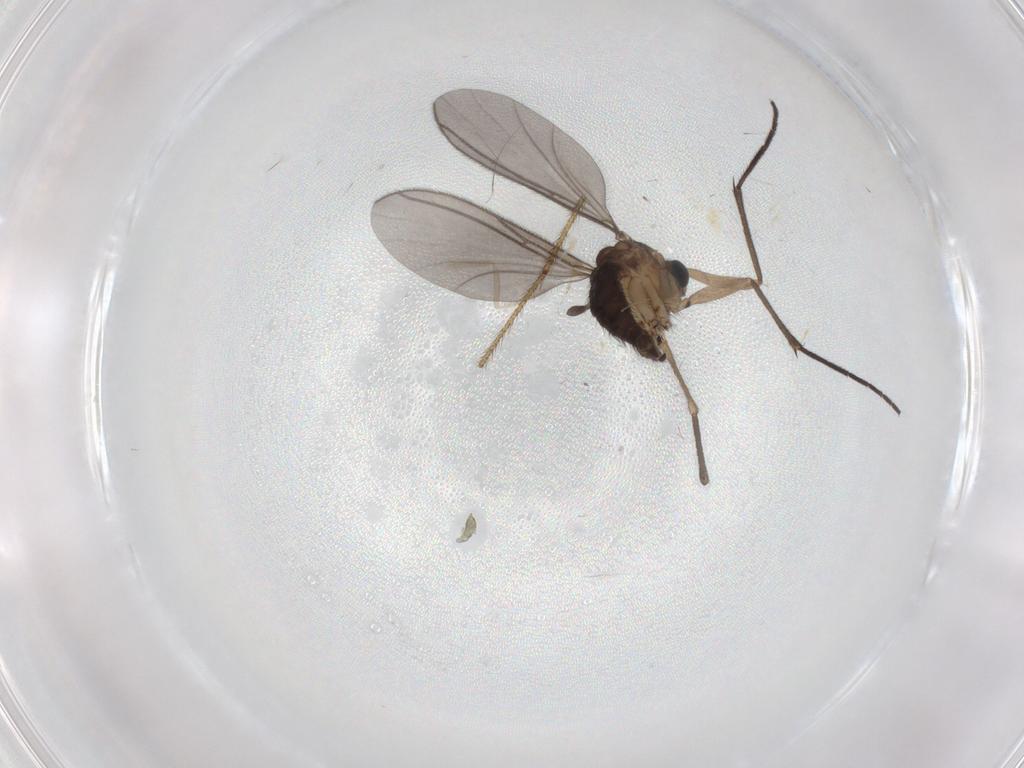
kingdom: Animalia
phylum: Arthropoda
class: Insecta
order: Diptera
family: Sciaridae
